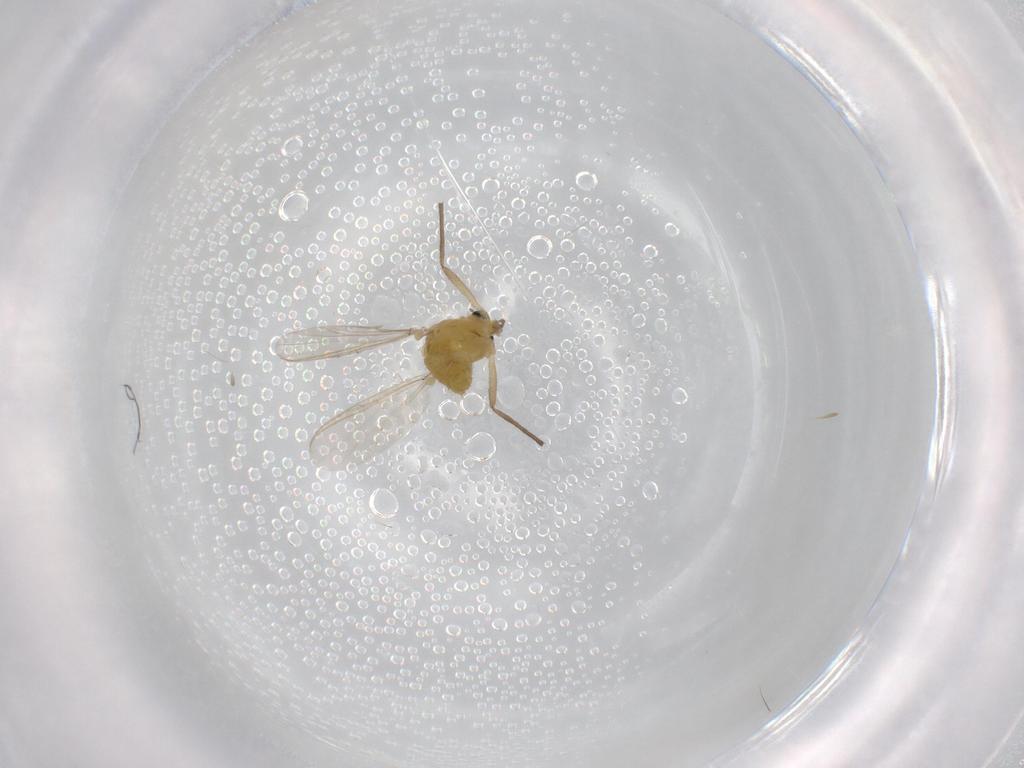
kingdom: Animalia
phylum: Arthropoda
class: Insecta
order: Diptera
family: Chironomidae
